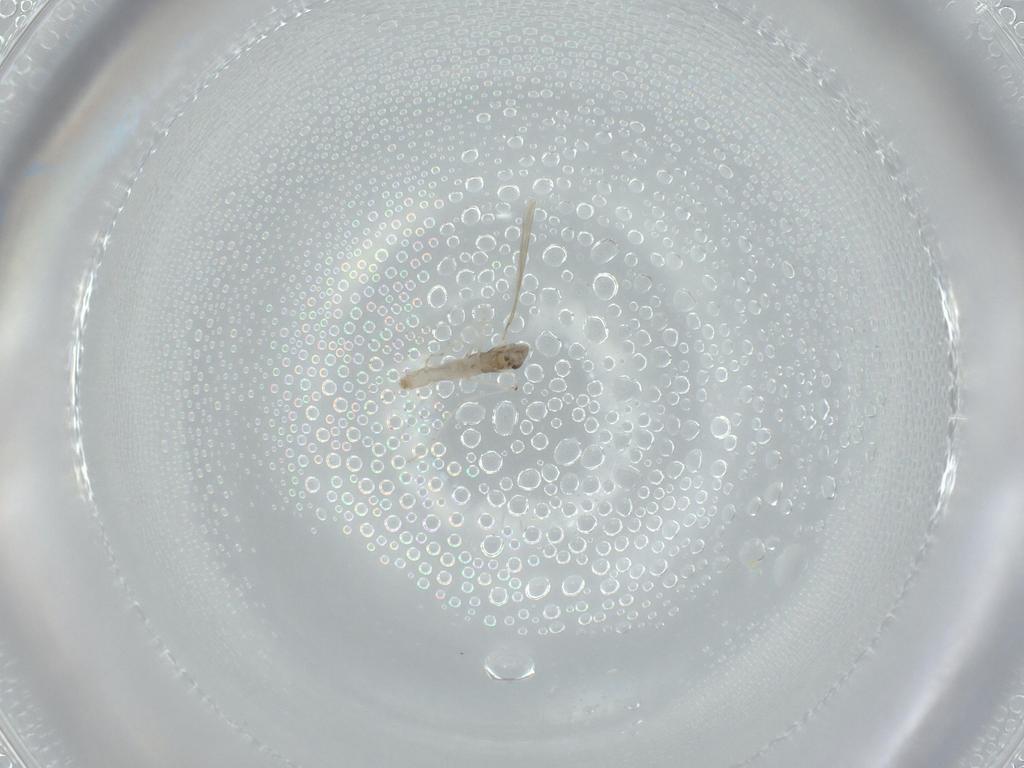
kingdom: Animalia
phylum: Arthropoda
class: Insecta
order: Diptera
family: Cecidomyiidae
